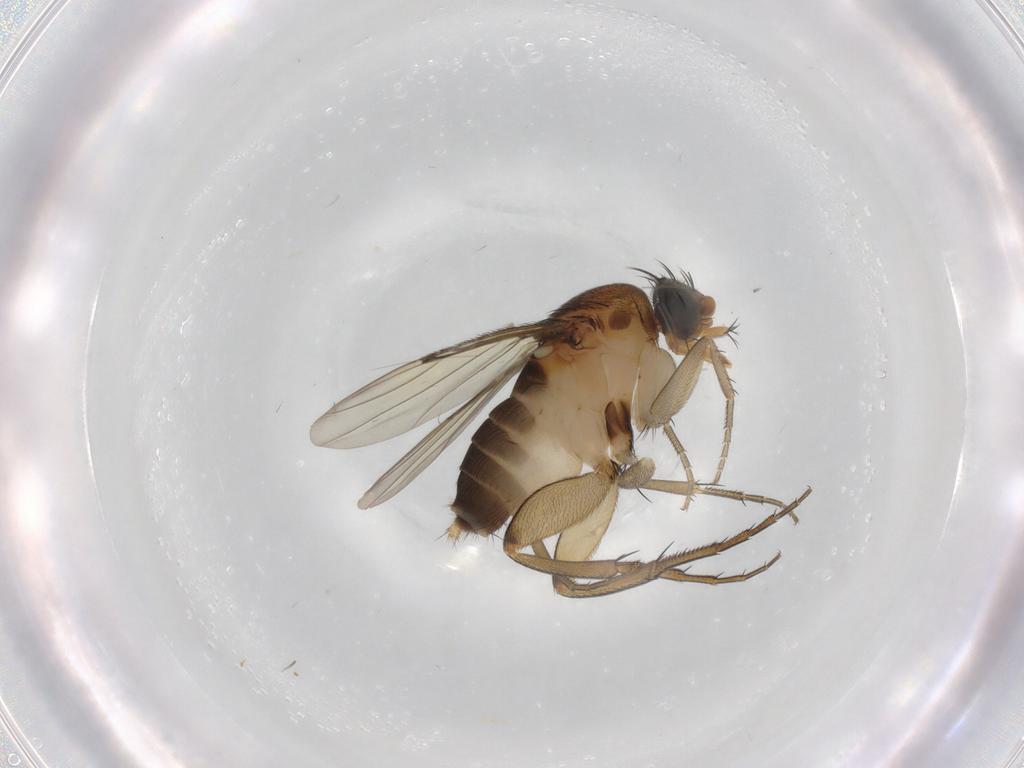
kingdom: Animalia
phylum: Arthropoda
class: Insecta
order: Diptera
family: Phoridae
